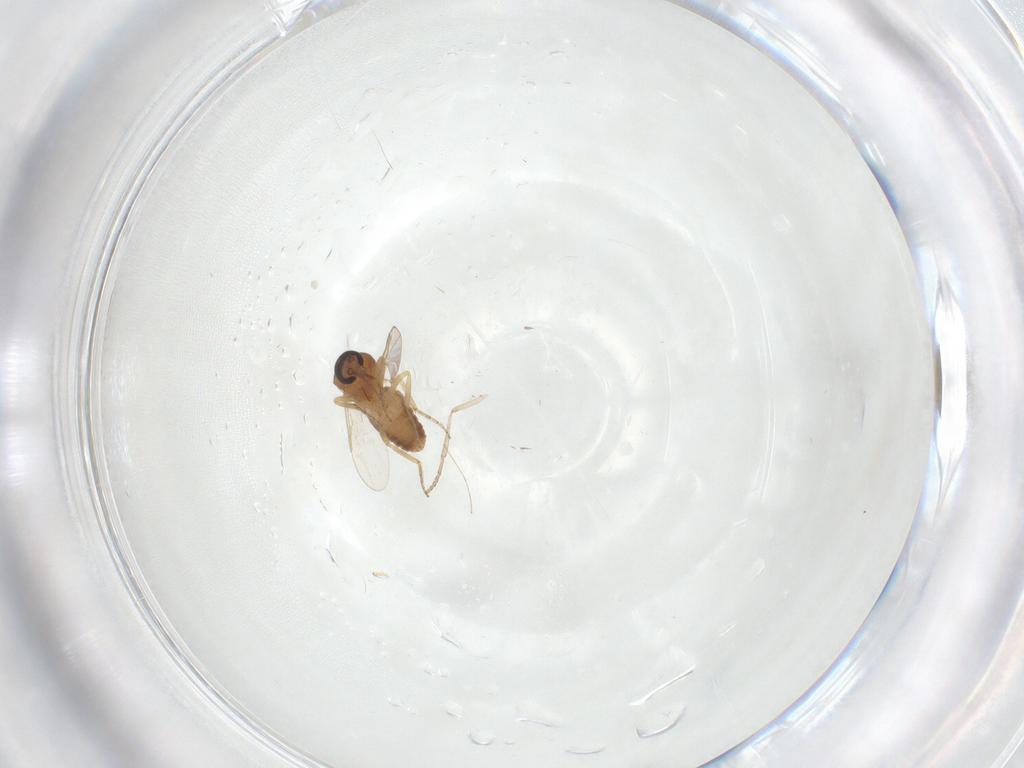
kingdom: Animalia
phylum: Arthropoda
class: Insecta
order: Diptera
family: Ceratopogonidae
